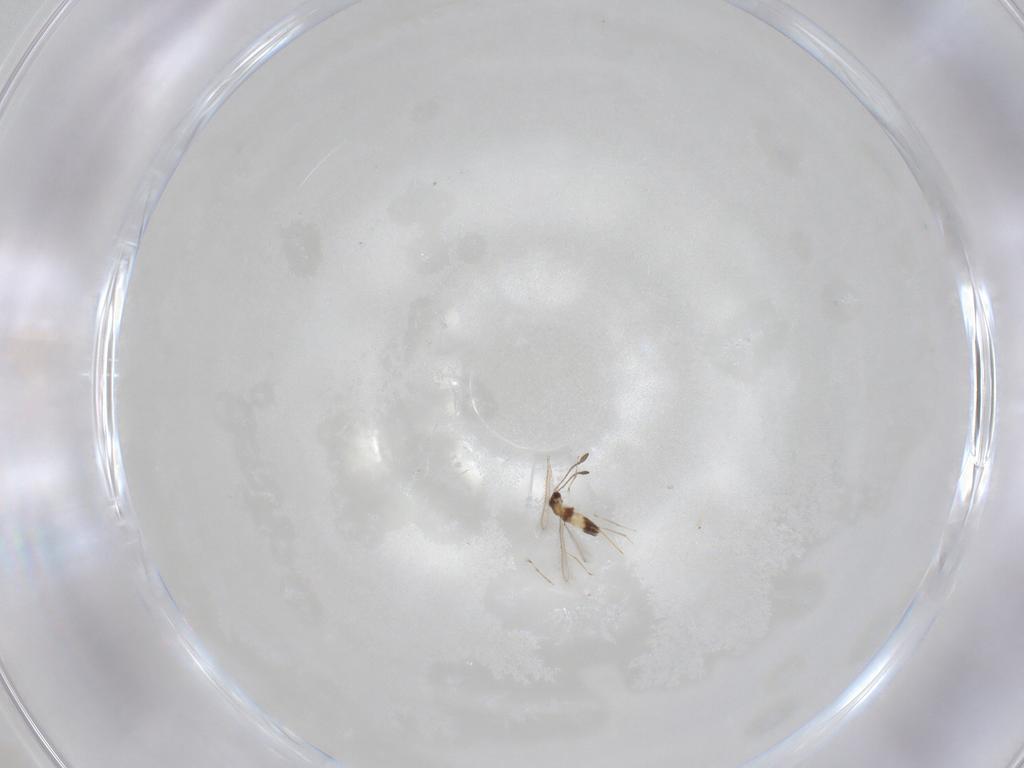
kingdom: Animalia
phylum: Arthropoda
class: Insecta
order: Hymenoptera
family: Mymaridae
